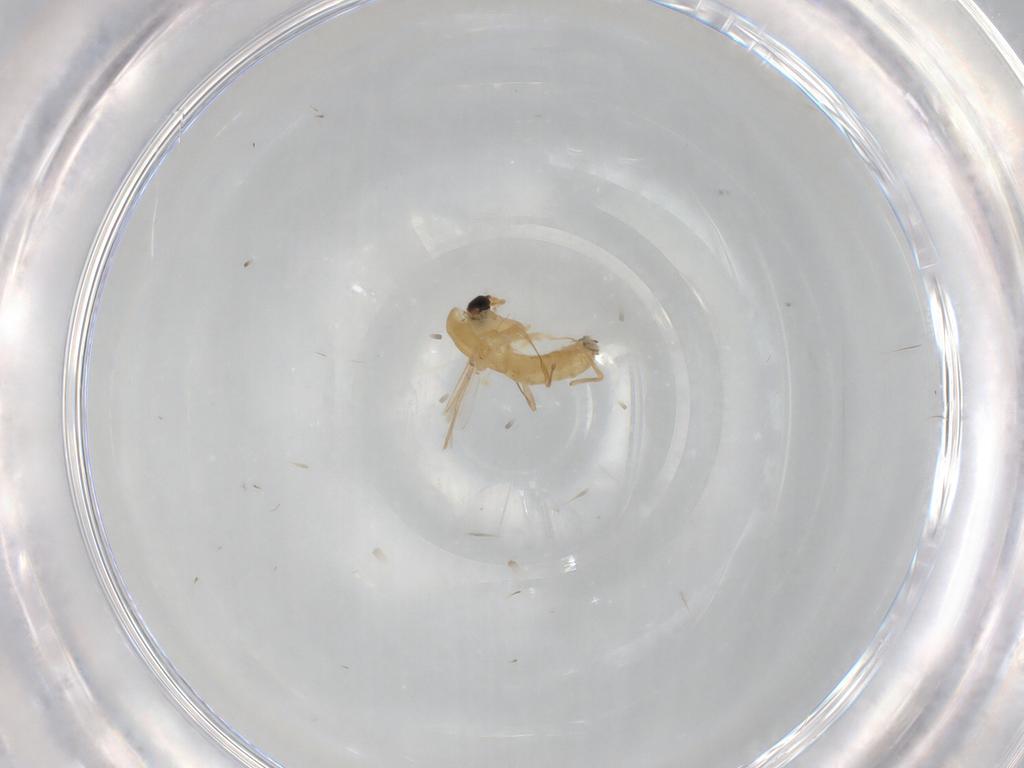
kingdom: Animalia
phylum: Arthropoda
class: Insecta
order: Diptera
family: Chironomidae
